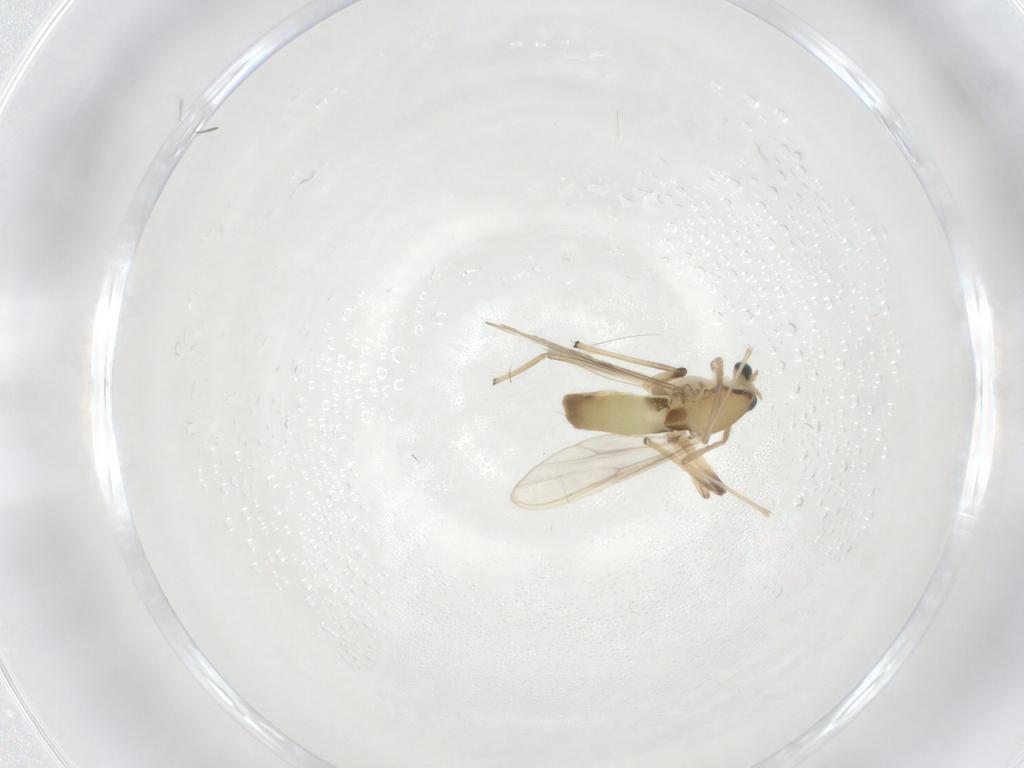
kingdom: Animalia
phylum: Arthropoda
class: Insecta
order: Diptera
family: Chironomidae
